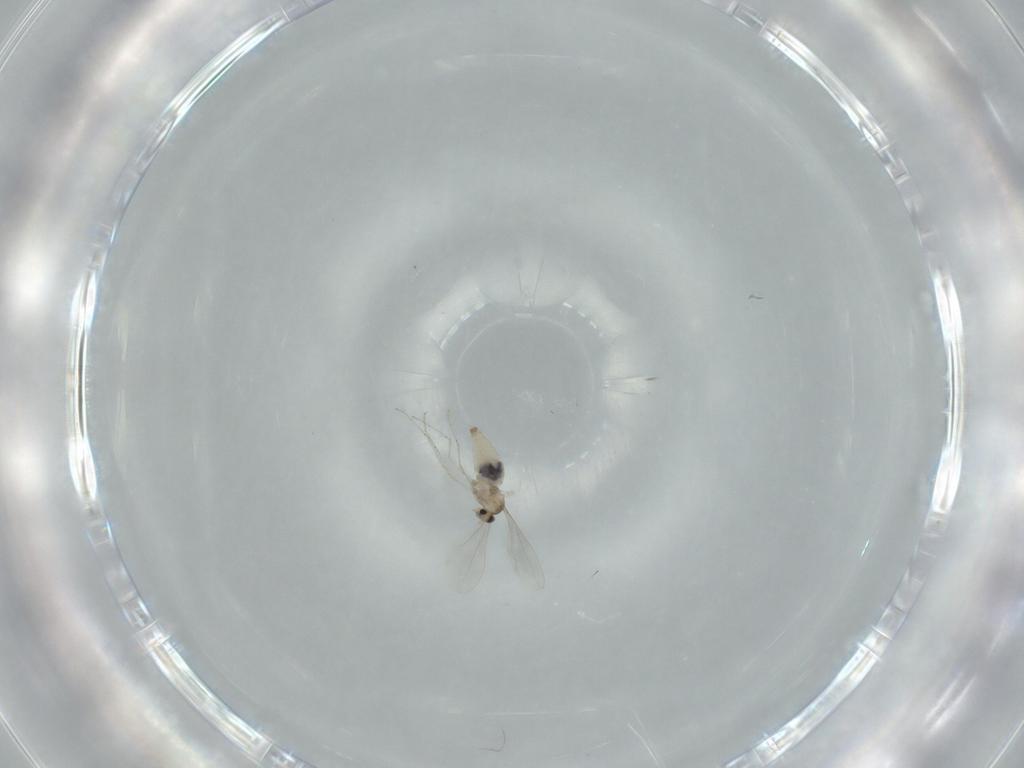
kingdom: Animalia
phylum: Arthropoda
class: Insecta
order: Diptera
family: Cecidomyiidae
